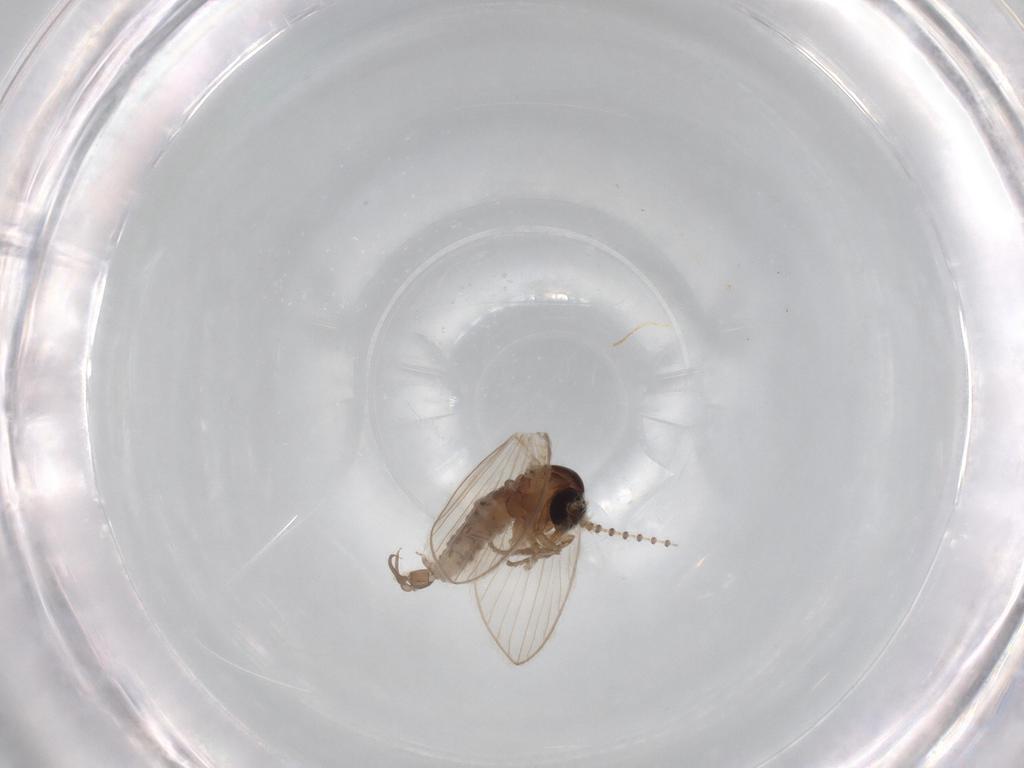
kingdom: Animalia
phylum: Arthropoda
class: Insecta
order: Diptera
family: Psychodidae
